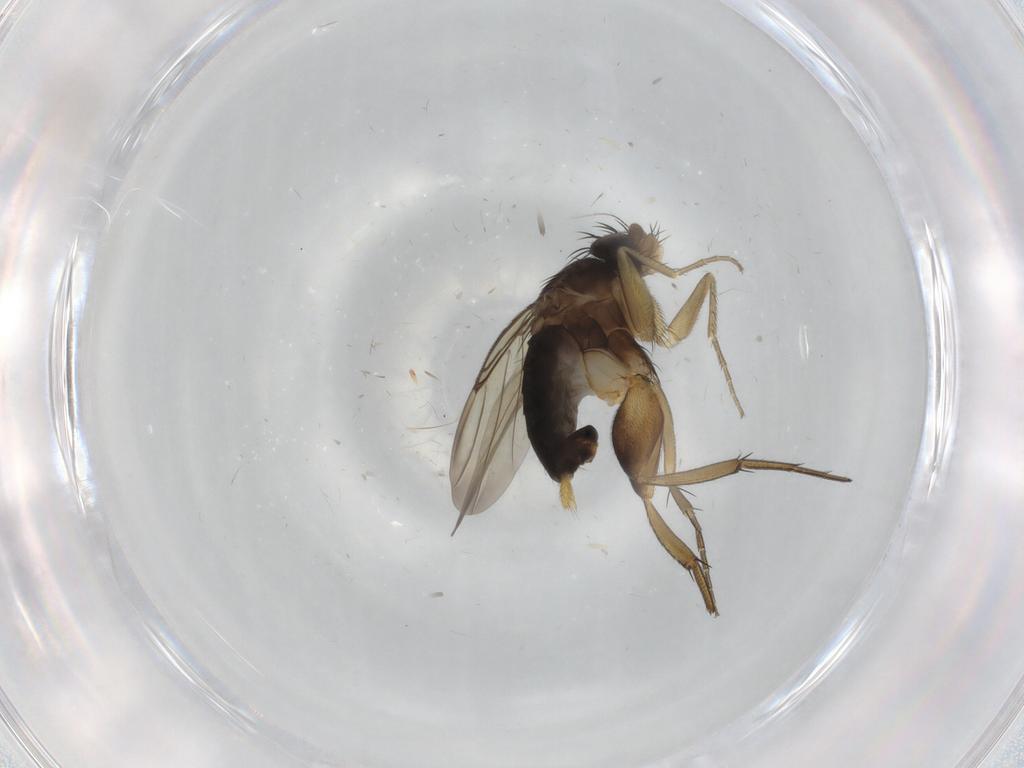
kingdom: Animalia
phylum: Arthropoda
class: Insecta
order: Diptera
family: Phoridae
